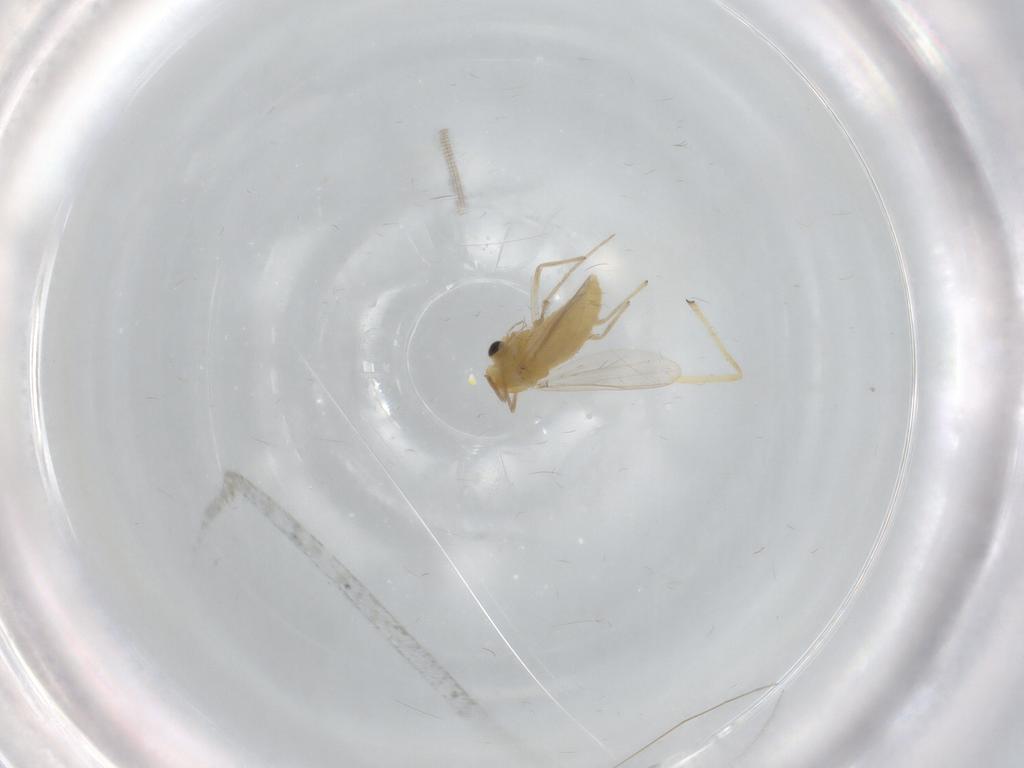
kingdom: Animalia
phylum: Arthropoda
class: Insecta
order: Diptera
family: Chironomidae
